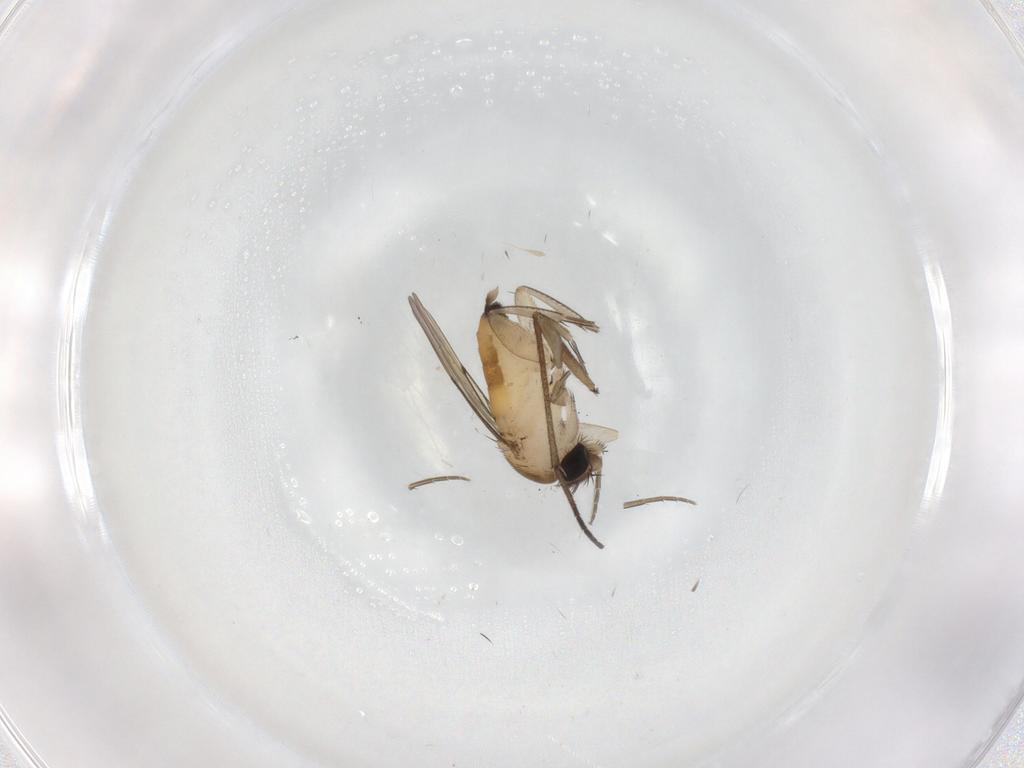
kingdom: Animalia
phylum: Arthropoda
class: Insecta
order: Diptera
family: Phoridae
